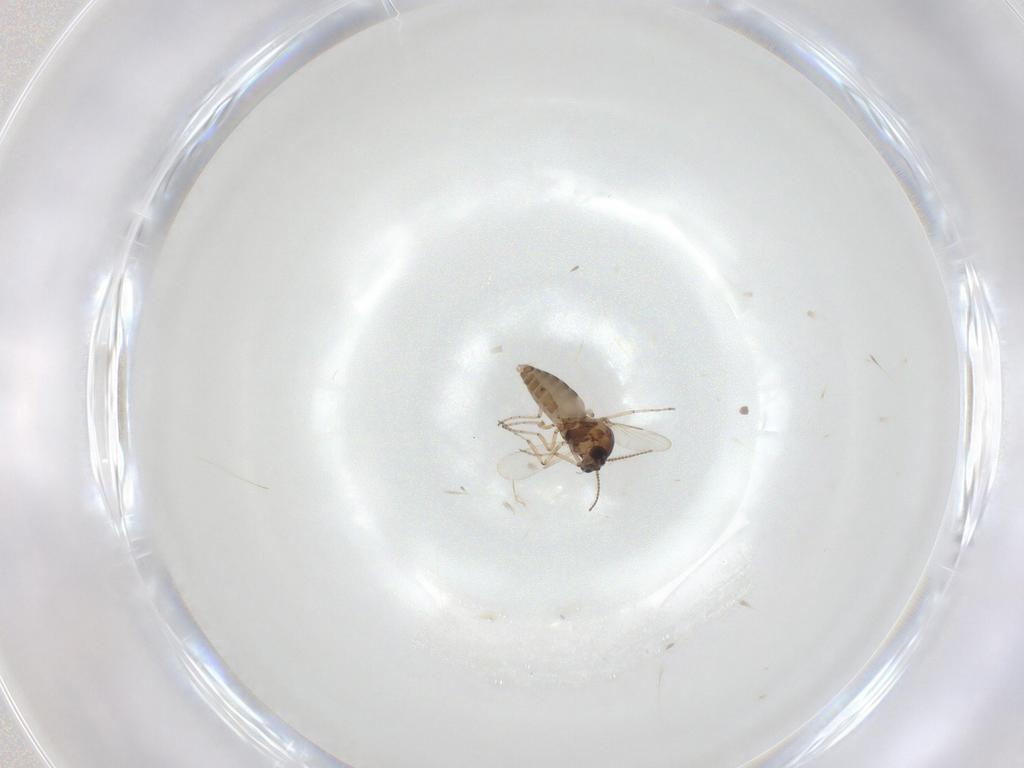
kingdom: Animalia
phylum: Arthropoda
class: Insecta
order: Diptera
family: Ceratopogonidae
